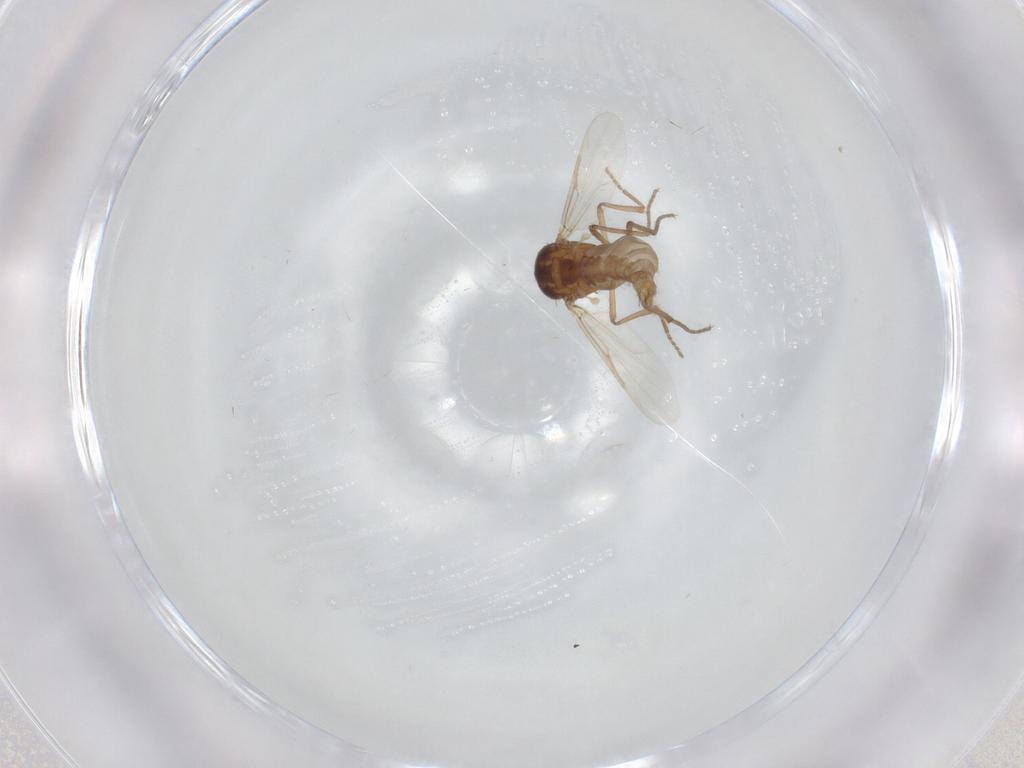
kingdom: Animalia
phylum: Arthropoda
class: Insecta
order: Diptera
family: Ceratopogonidae
